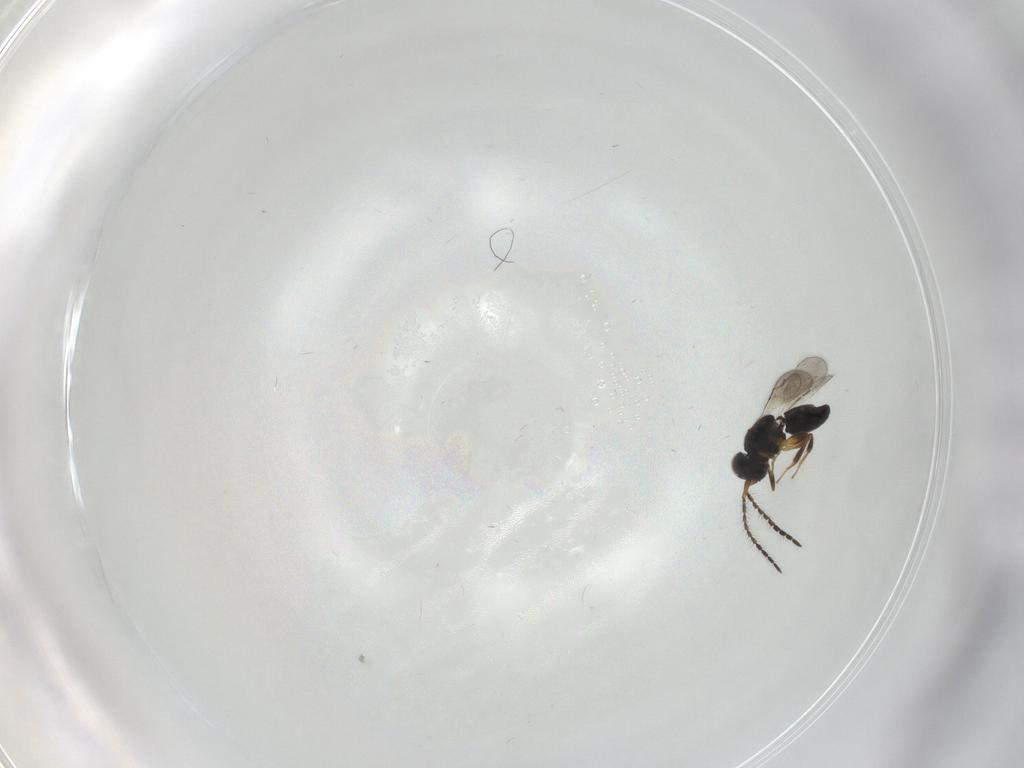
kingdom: Animalia
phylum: Arthropoda
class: Insecta
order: Hymenoptera
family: Ceraphronidae
